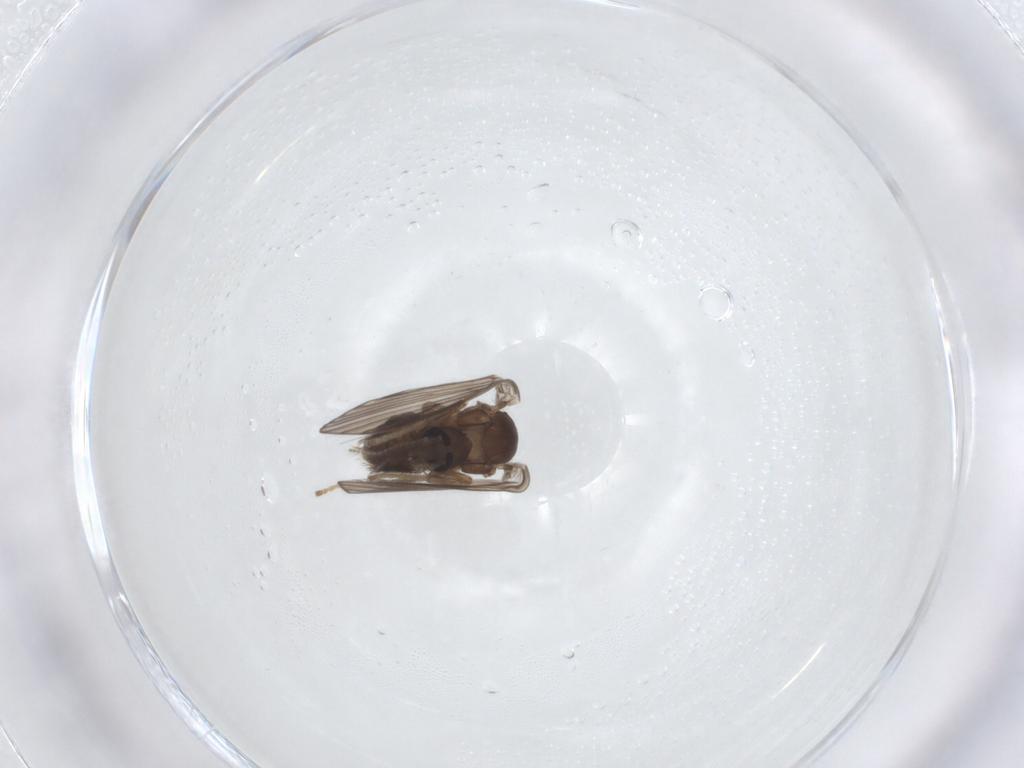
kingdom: Animalia
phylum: Arthropoda
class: Insecta
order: Diptera
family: Psychodidae
